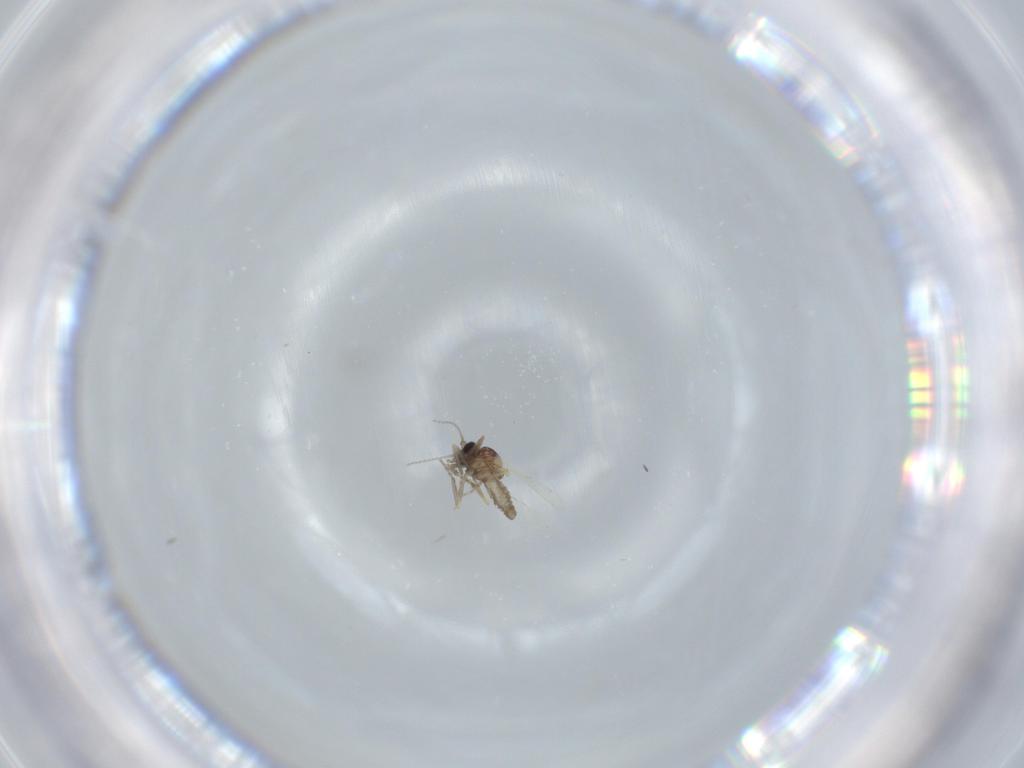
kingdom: Animalia
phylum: Arthropoda
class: Insecta
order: Diptera
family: Ceratopogonidae
